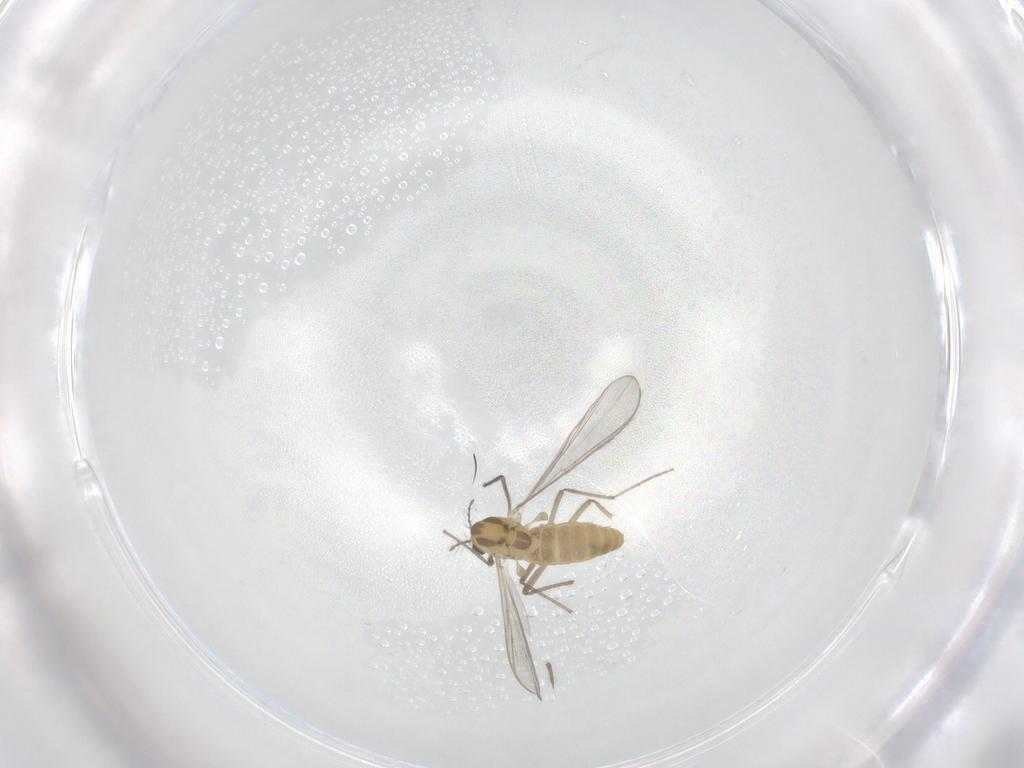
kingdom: Animalia
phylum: Arthropoda
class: Insecta
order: Diptera
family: Chironomidae
